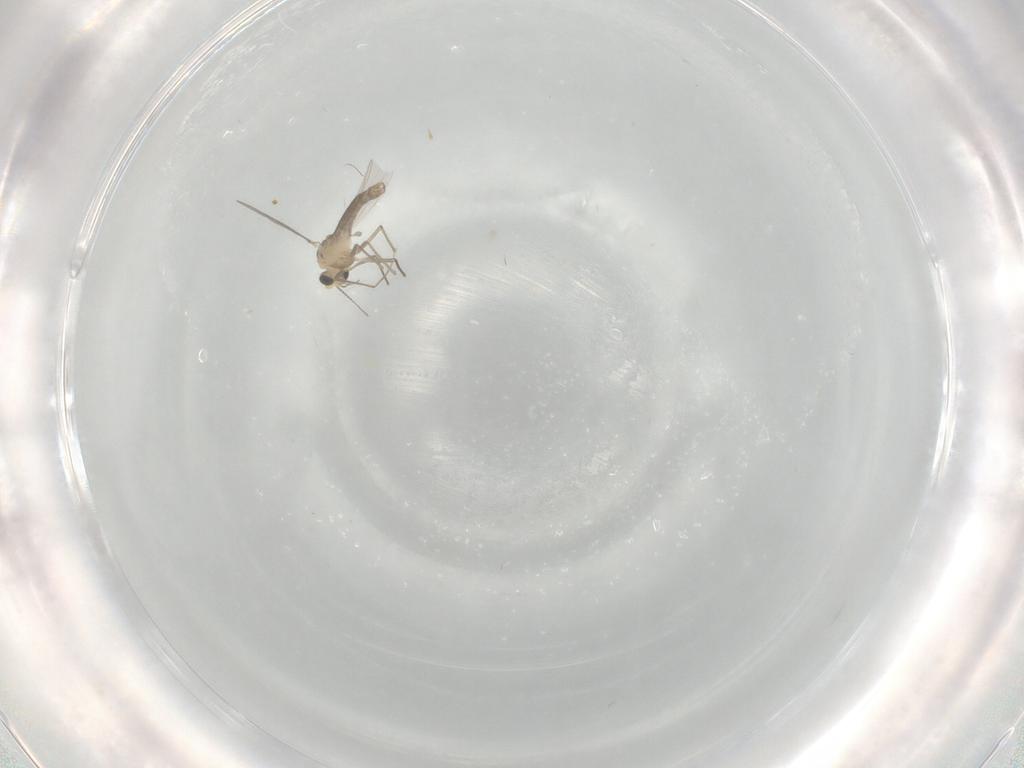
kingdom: Animalia
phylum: Arthropoda
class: Insecta
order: Diptera
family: Chironomidae
